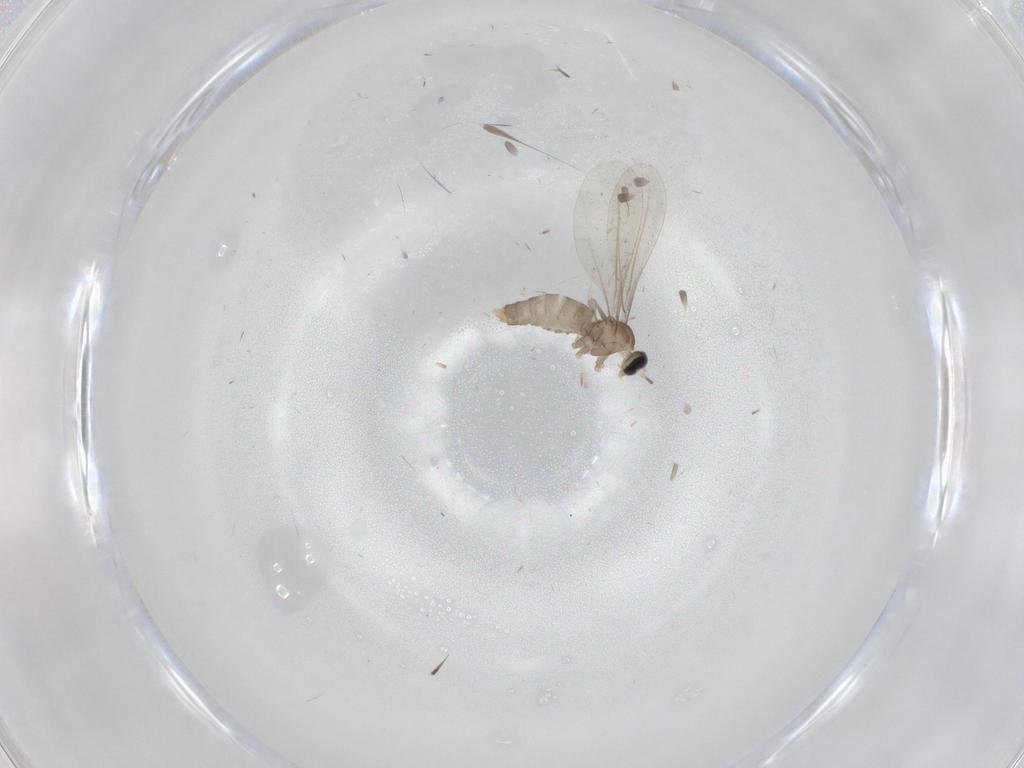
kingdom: Animalia
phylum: Arthropoda
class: Insecta
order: Diptera
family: Cecidomyiidae
